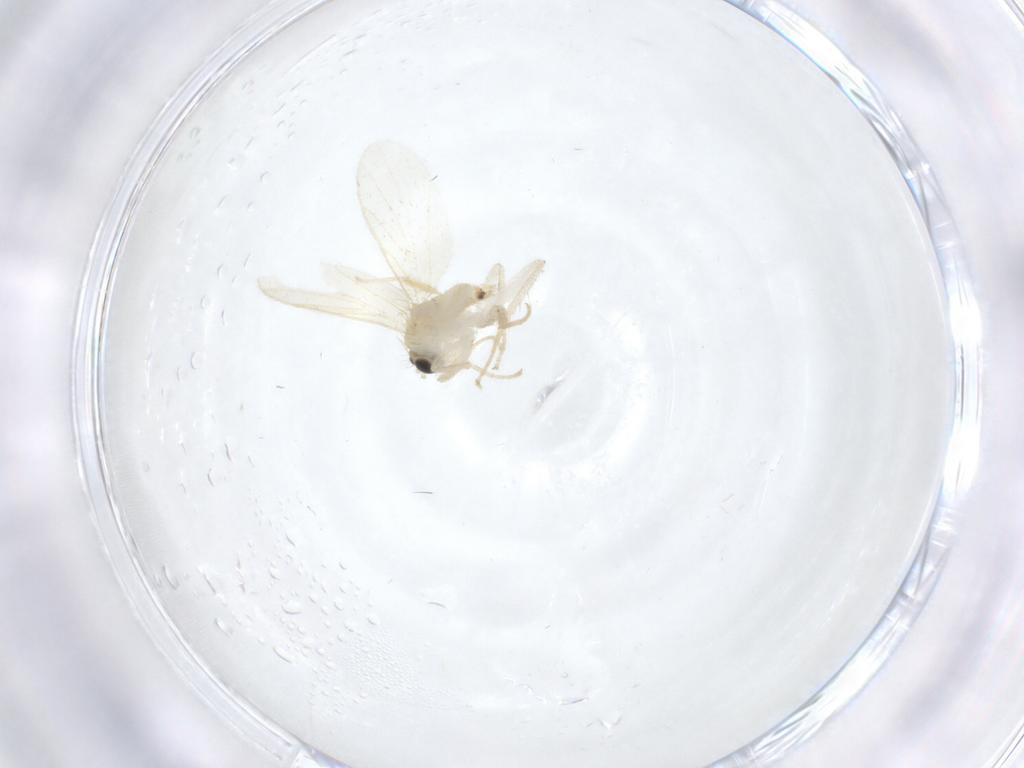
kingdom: Animalia
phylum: Arthropoda
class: Insecta
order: Diptera
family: Hybotidae
